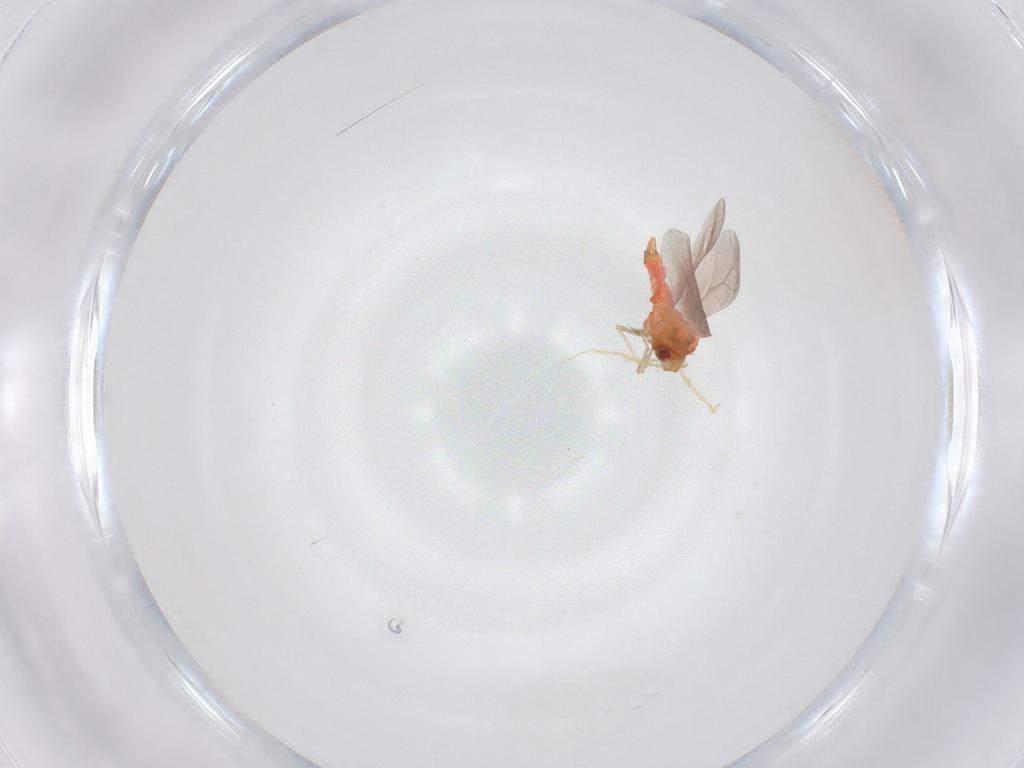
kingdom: Animalia
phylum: Arthropoda
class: Insecta
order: Hemiptera
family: Aleyrodidae
